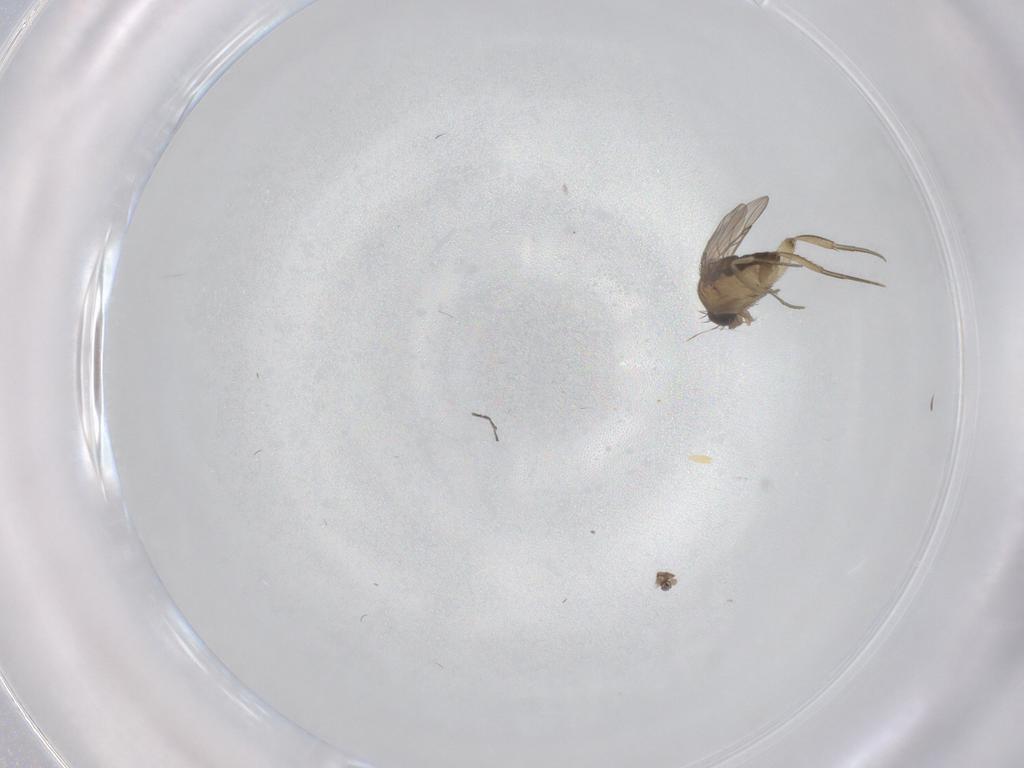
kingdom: Animalia
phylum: Arthropoda
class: Insecta
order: Diptera
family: Phoridae
